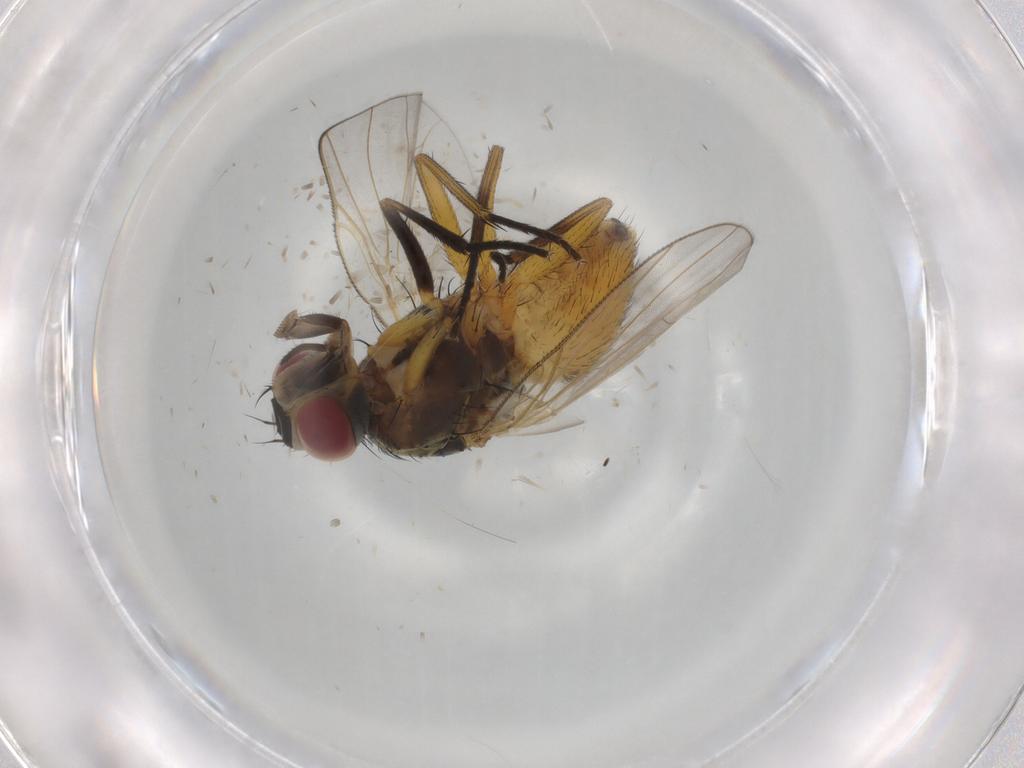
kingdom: Animalia
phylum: Arthropoda
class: Insecta
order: Diptera
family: Muscidae
